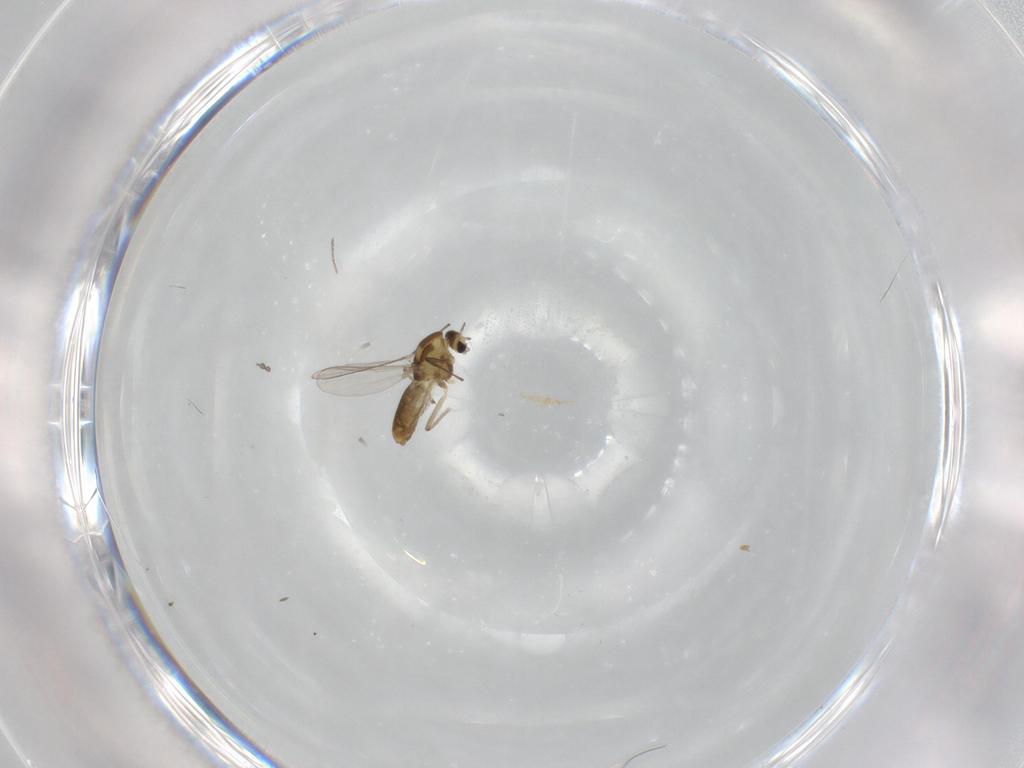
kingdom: Animalia
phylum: Arthropoda
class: Insecta
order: Diptera
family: Chironomidae
